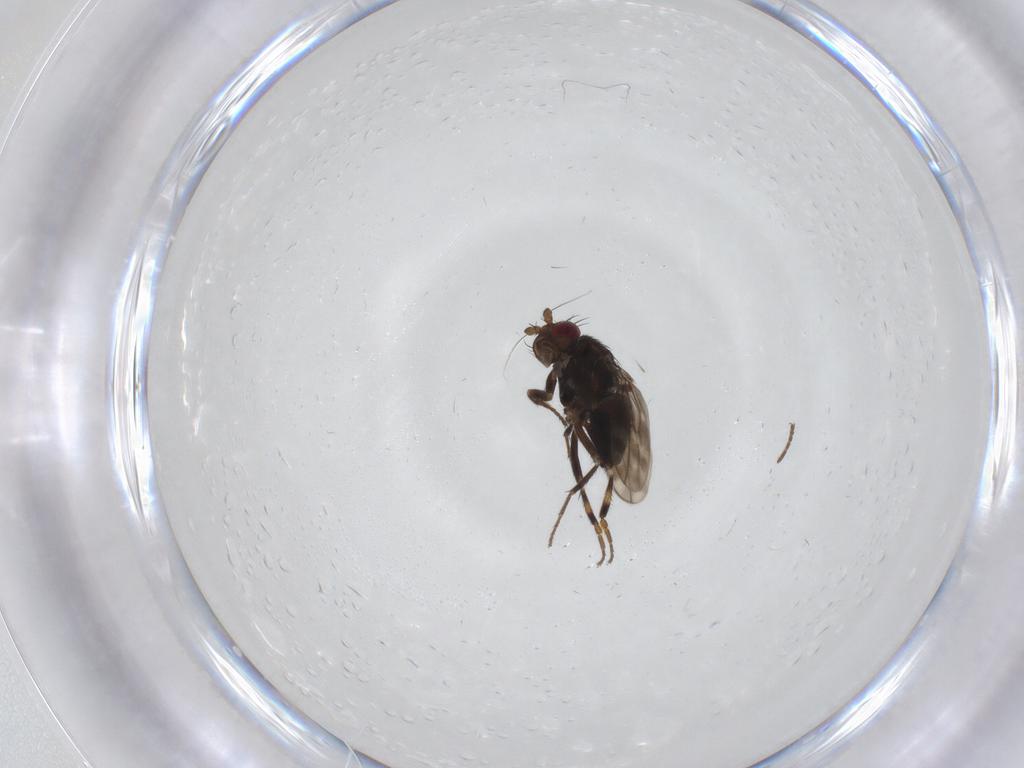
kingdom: Animalia
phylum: Arthropoda
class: Insecta
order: Diptera
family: Sphaeroceridae
